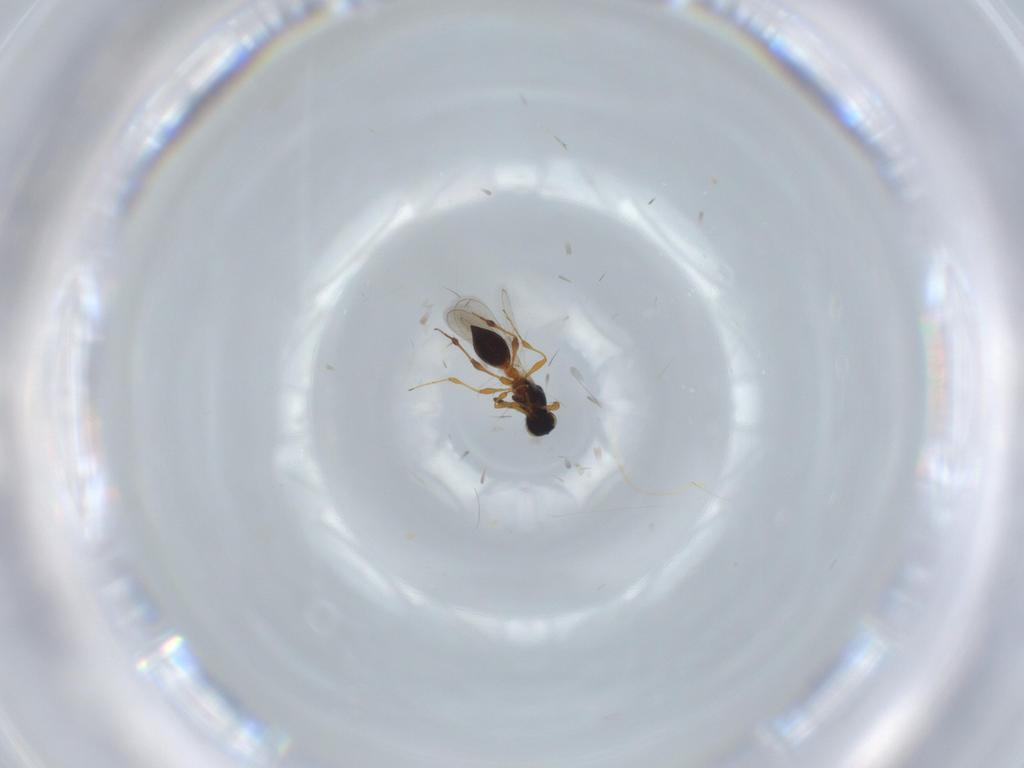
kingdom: Animalia
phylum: Arthropoda
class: Insecta
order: Hymenoptera
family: Platygastridae
